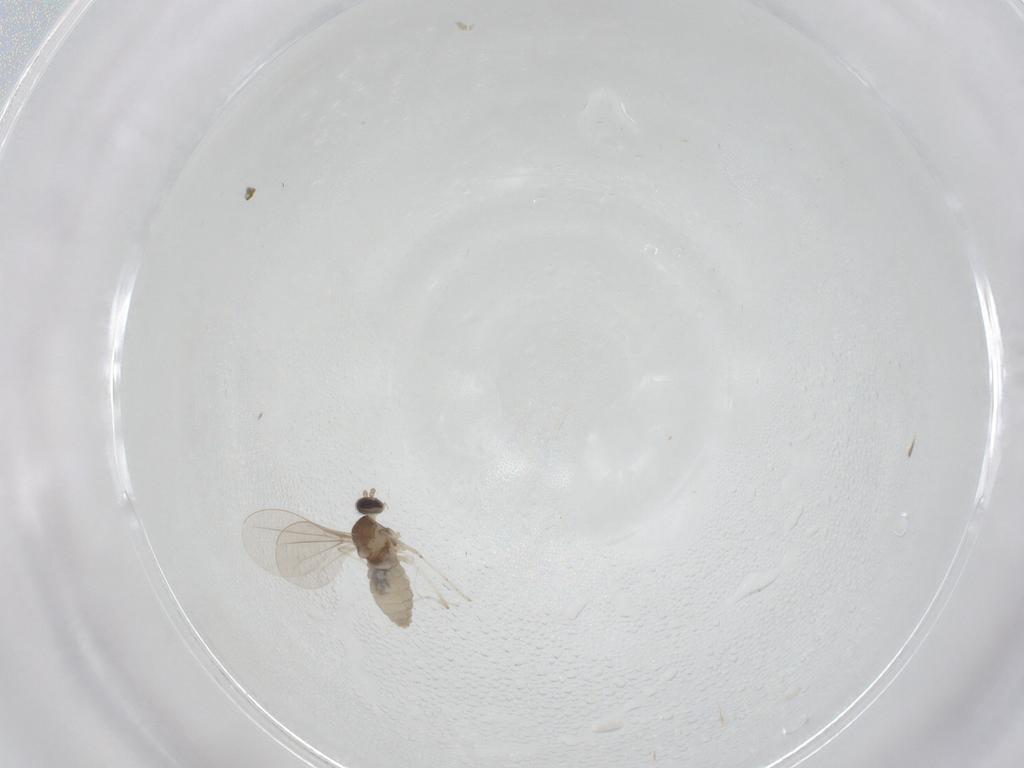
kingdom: Animalia
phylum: Arthropoda
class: Insecta
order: Diptera
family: Cecidomyiidae
